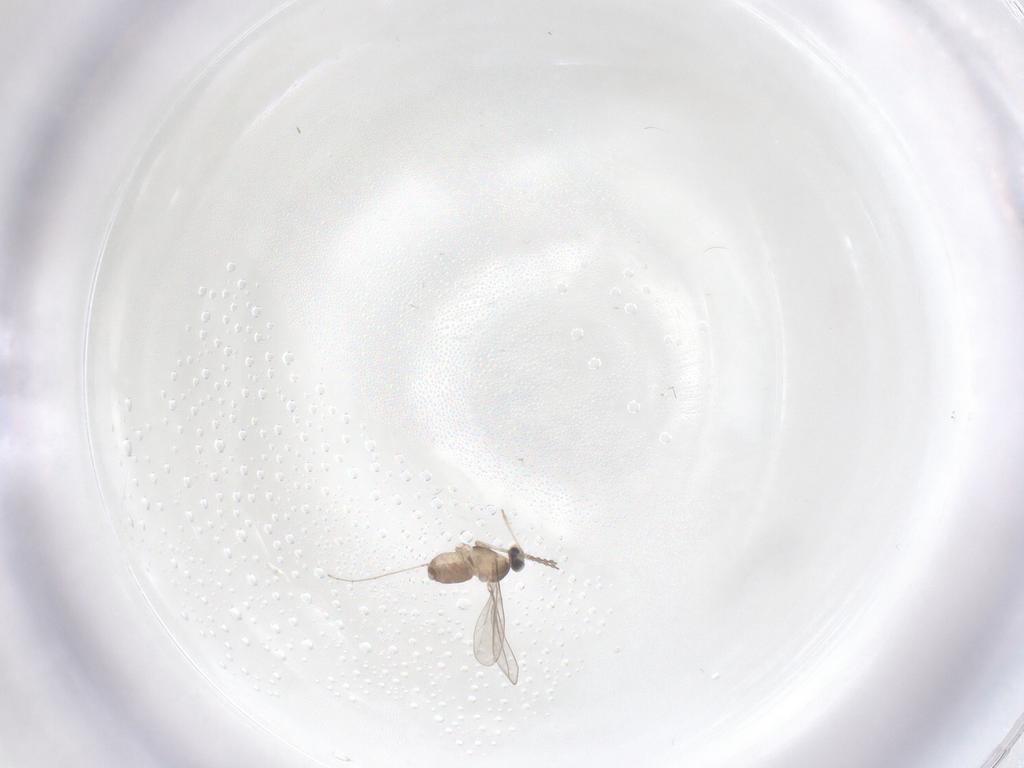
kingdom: Animalia
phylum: Arthropoda
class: Insecta
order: Diptera
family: Cecidomyiidae
